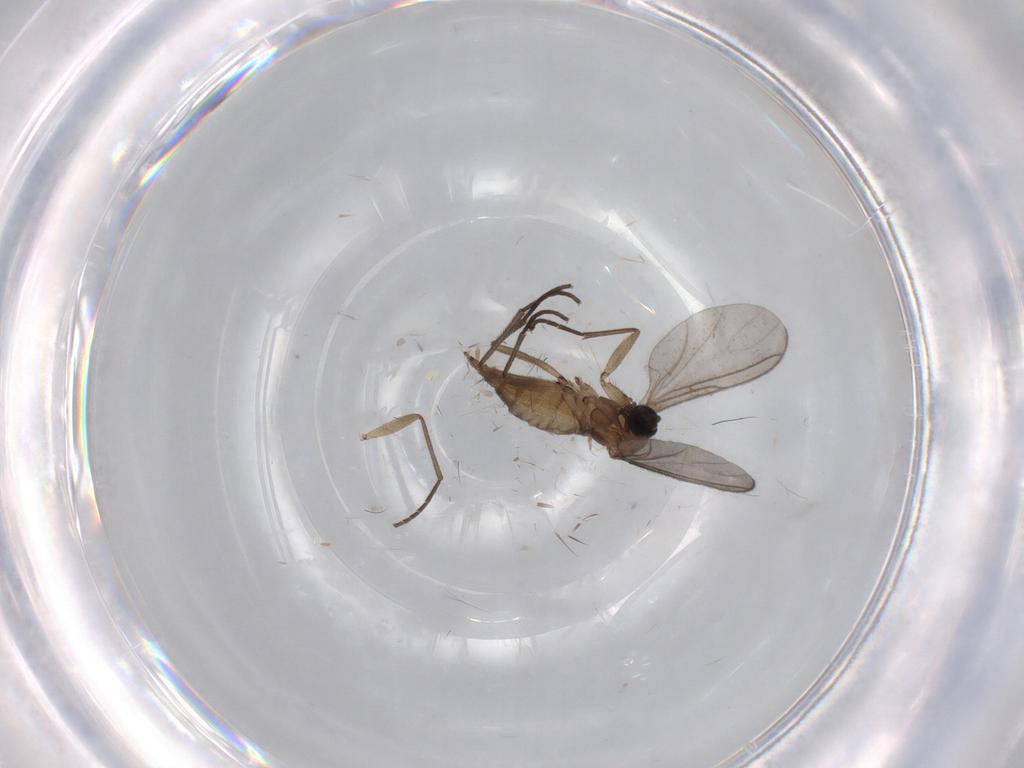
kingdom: Animalia
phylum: Arthropoda
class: Insecta
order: Diptera
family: Sciaridae
